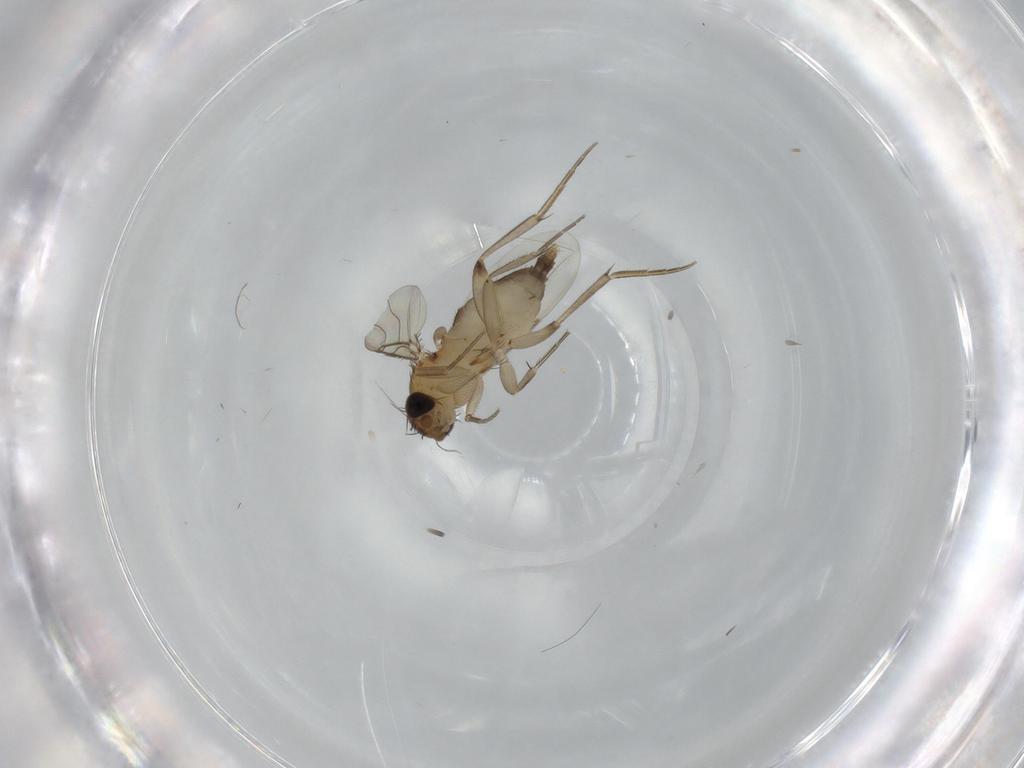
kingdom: Animalia
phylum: Arthropoda
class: Insecta
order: Diptera
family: Phoridae
